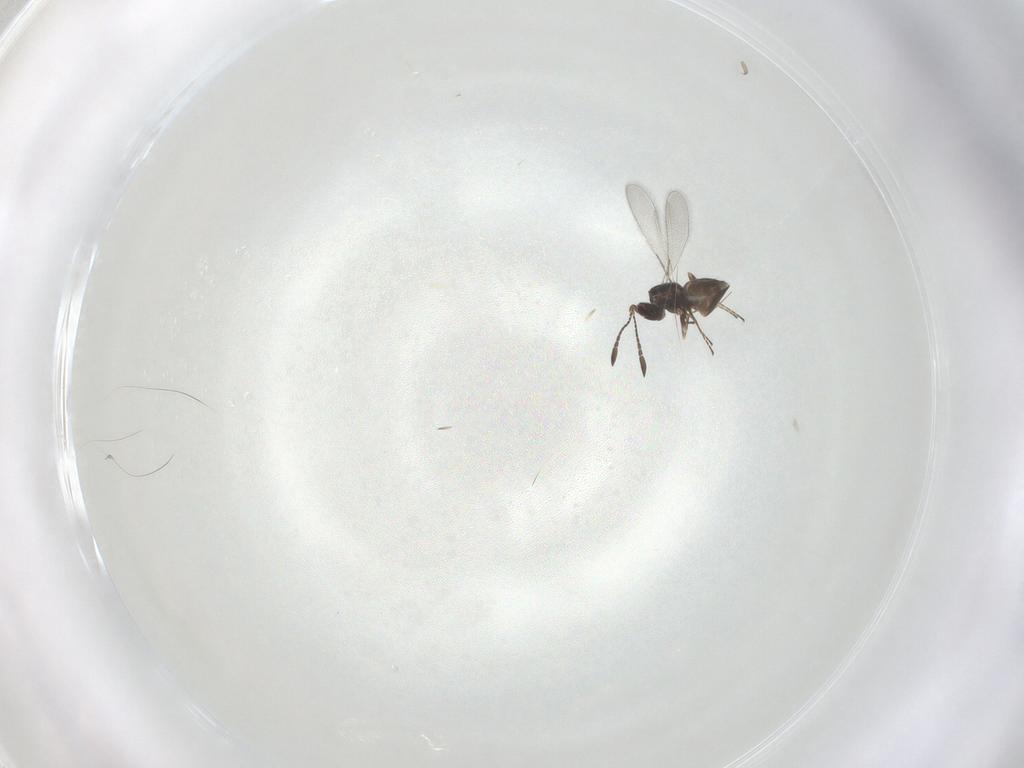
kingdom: Animalia
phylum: Arthropoda
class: Insecta
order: Hymenoptera
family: Mymaridae
